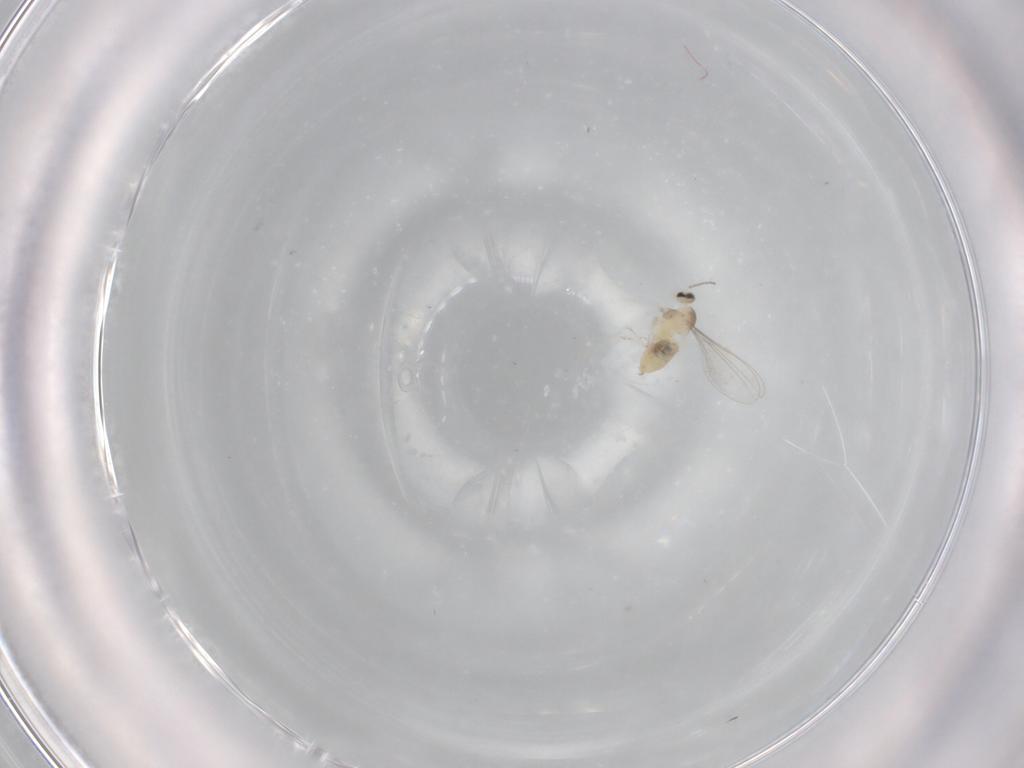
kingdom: Animalia
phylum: Arthropoda
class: Insecta
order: Diptera
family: Cecidomyiidae
